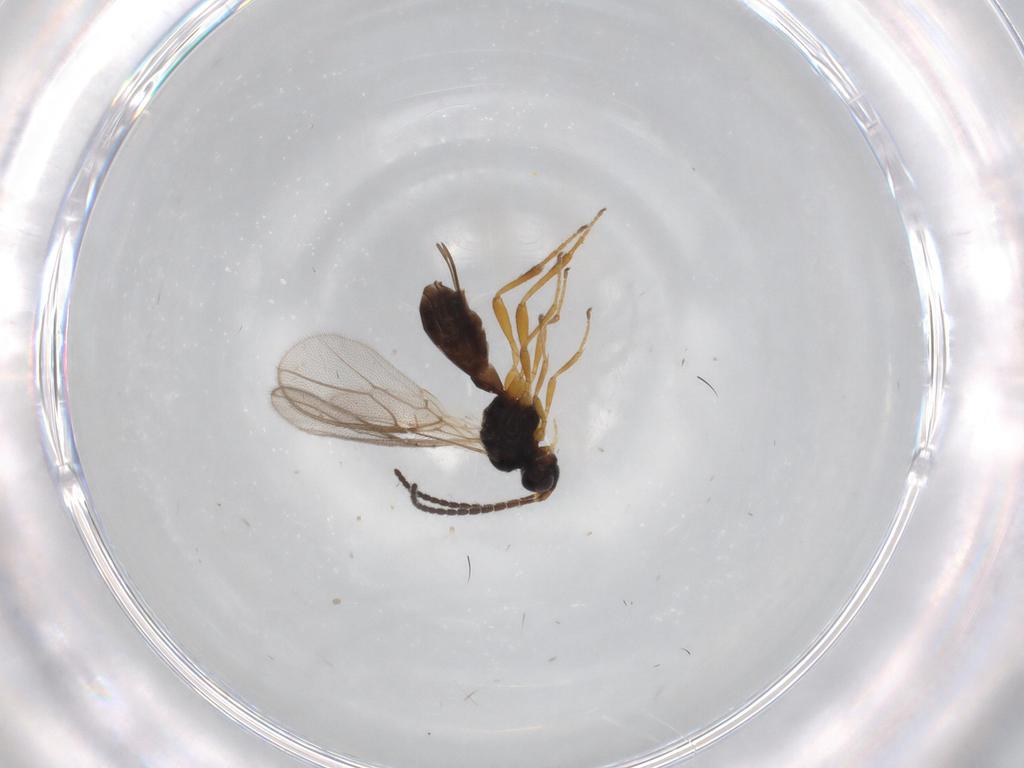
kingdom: Animalia
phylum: Arthropoda
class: Insecta
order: Hymenoptera
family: Braconidae
